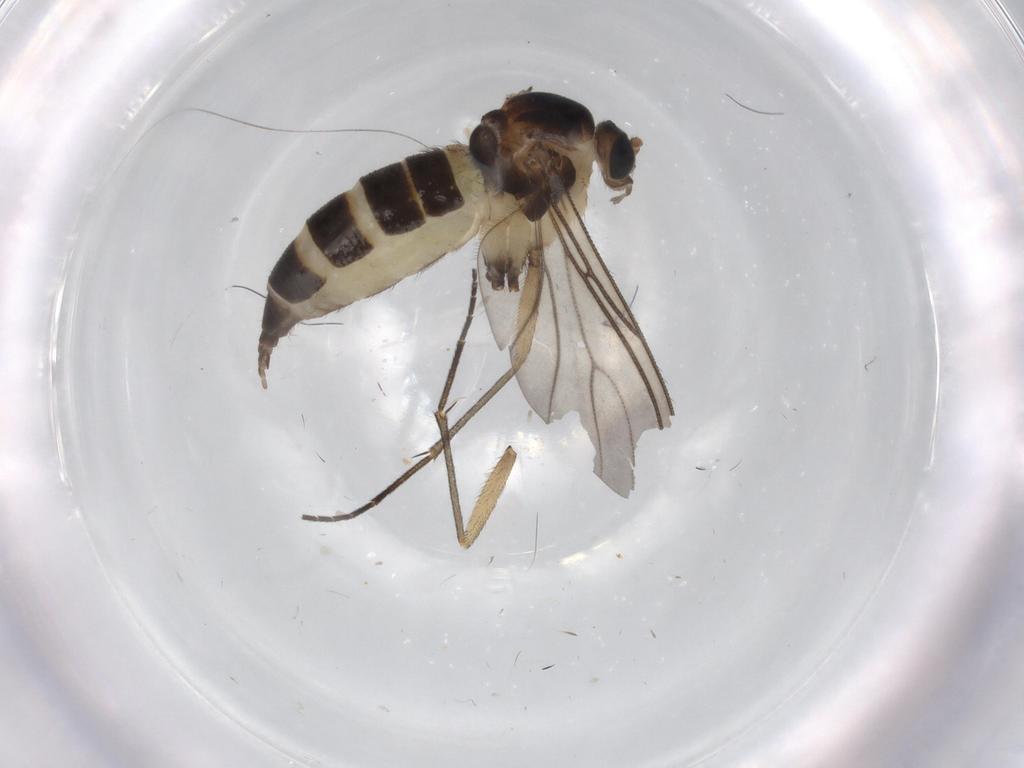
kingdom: Animalia
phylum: Arthropoda
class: Insecta
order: Diptera
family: Sciaridae
